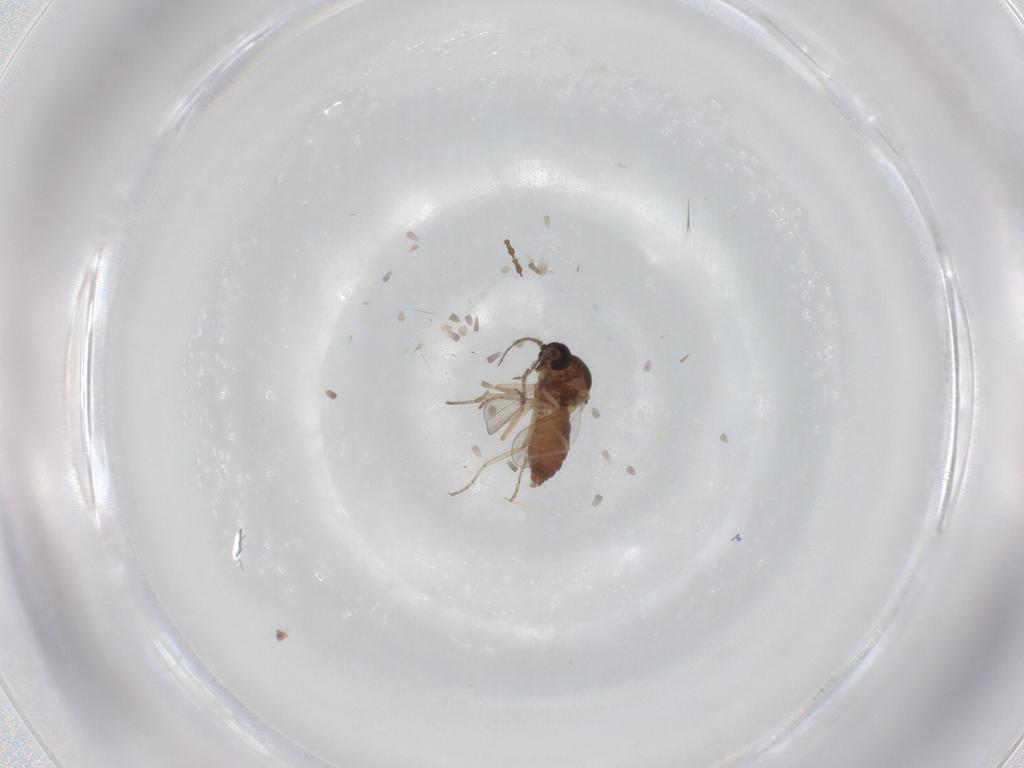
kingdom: Animalia
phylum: Arthropoda
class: Insecta
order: Diptera
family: Ceratopogonidae
